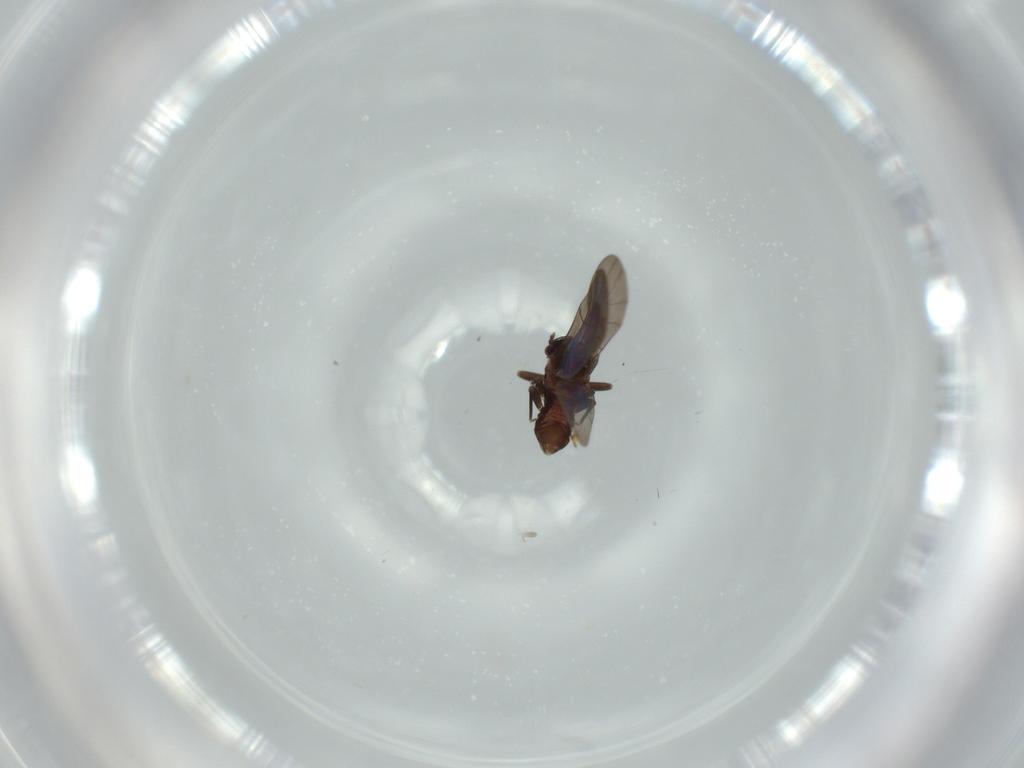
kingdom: Animalia
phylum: Arthropoda
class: Insecta
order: Psocodea
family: Lepidopsocidae
